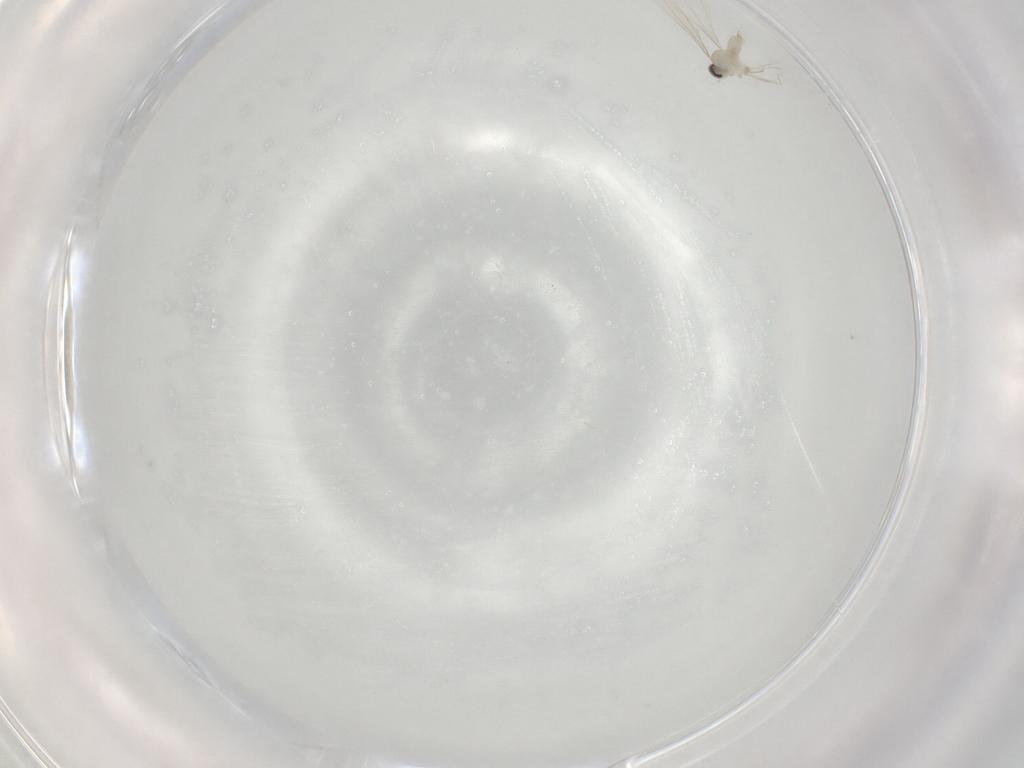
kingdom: Animalia
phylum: Arthropoda
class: Insecta
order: Diptera
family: Cecidomyiidae
